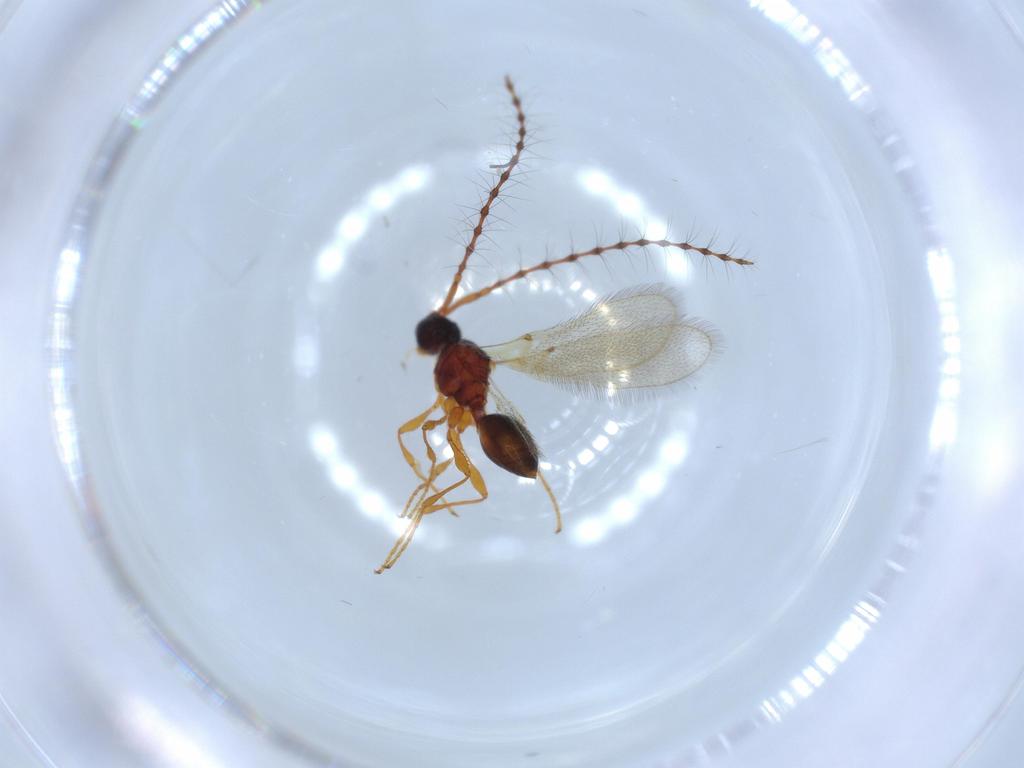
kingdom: Animalia
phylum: Arthropoda
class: Insecta
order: Hymenoptera
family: Diapriidae
